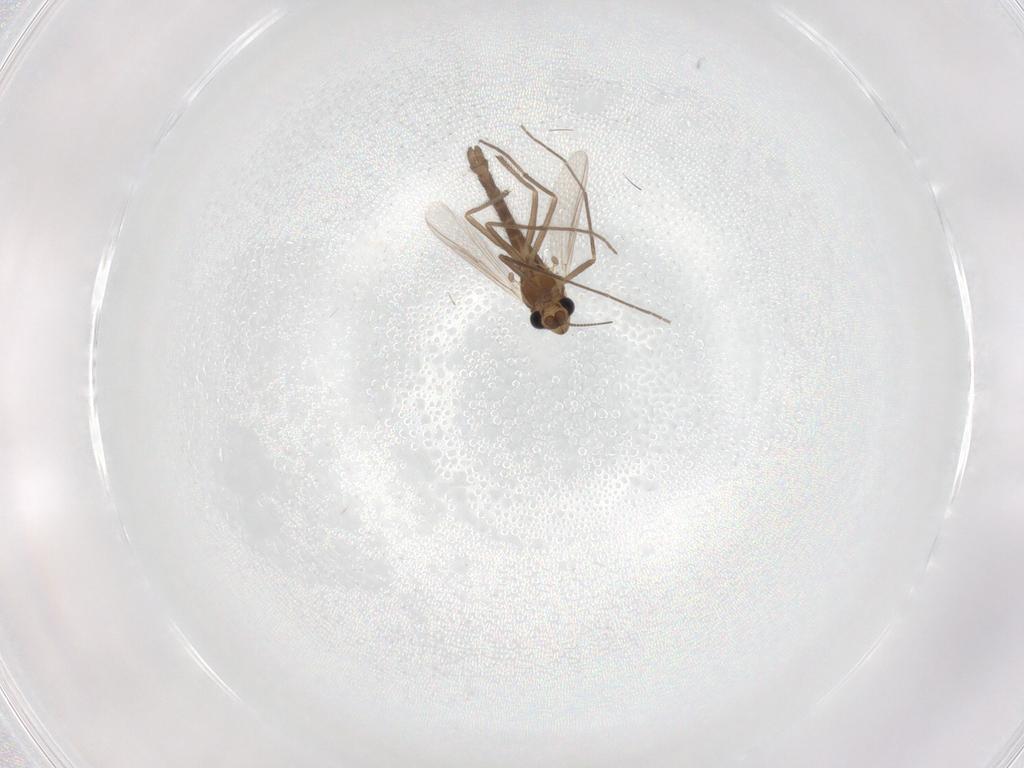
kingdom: Animalia
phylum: Arthropoda
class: Insecta
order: Diptera
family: Chironomidae
